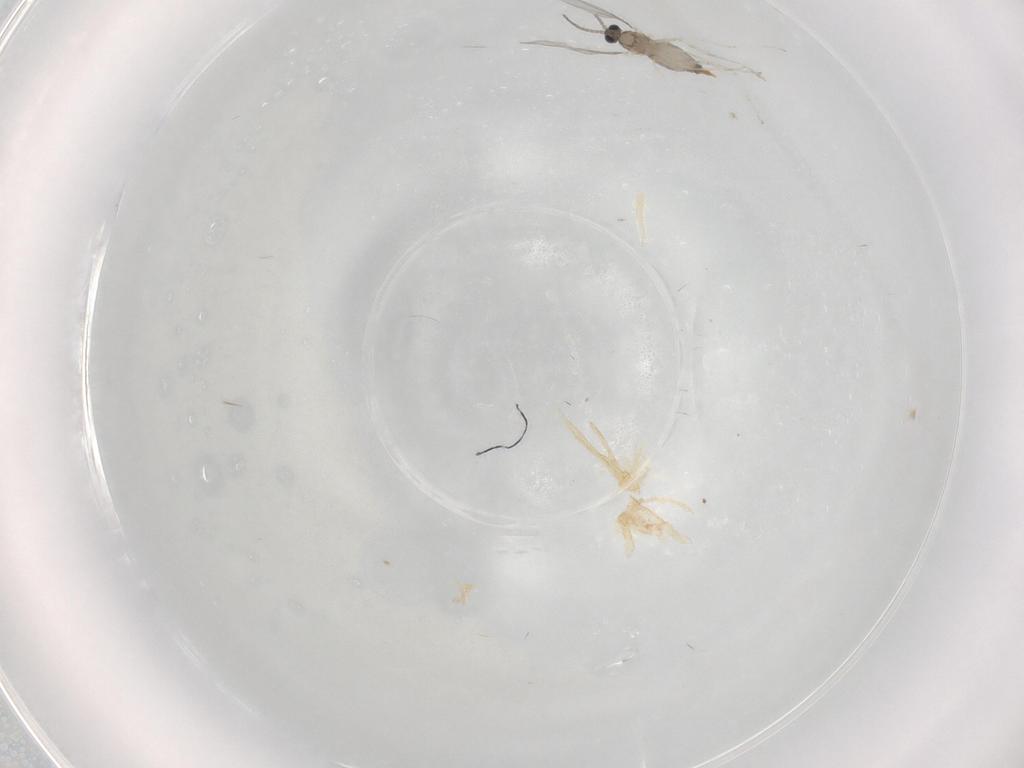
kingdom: Animalia
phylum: Arthropoda
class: Insecta
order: Diptera
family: Cecidomyiidae
